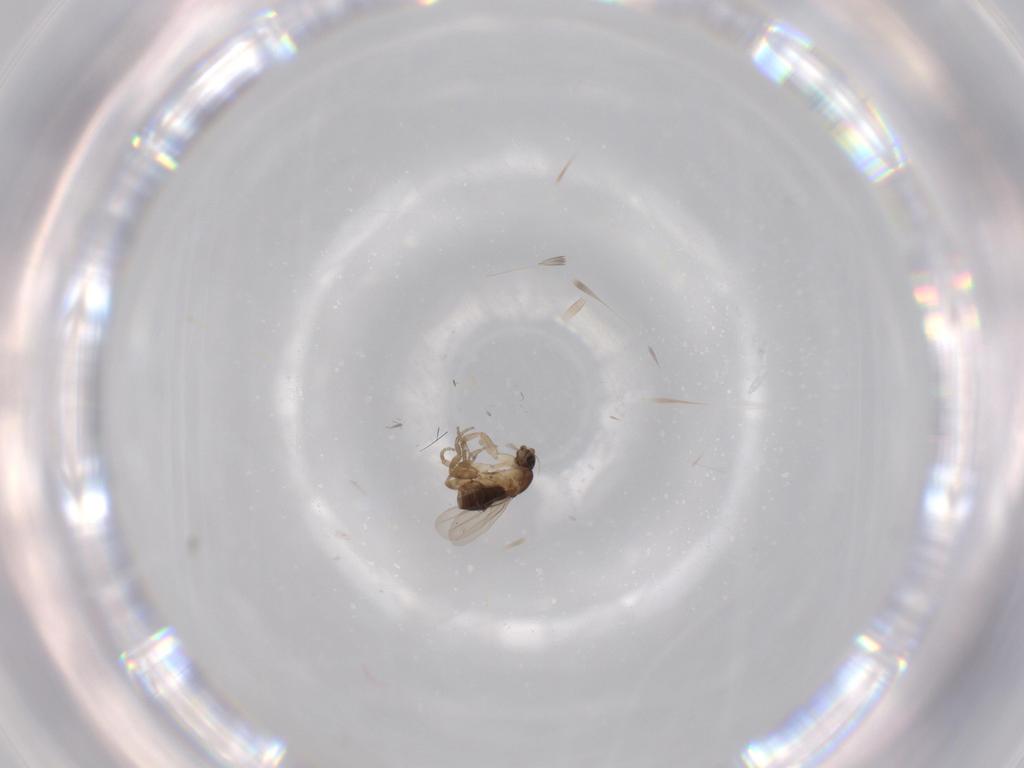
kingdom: Animalia
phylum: Arthropoda
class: Insecta
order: Diptera
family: Phoridae
